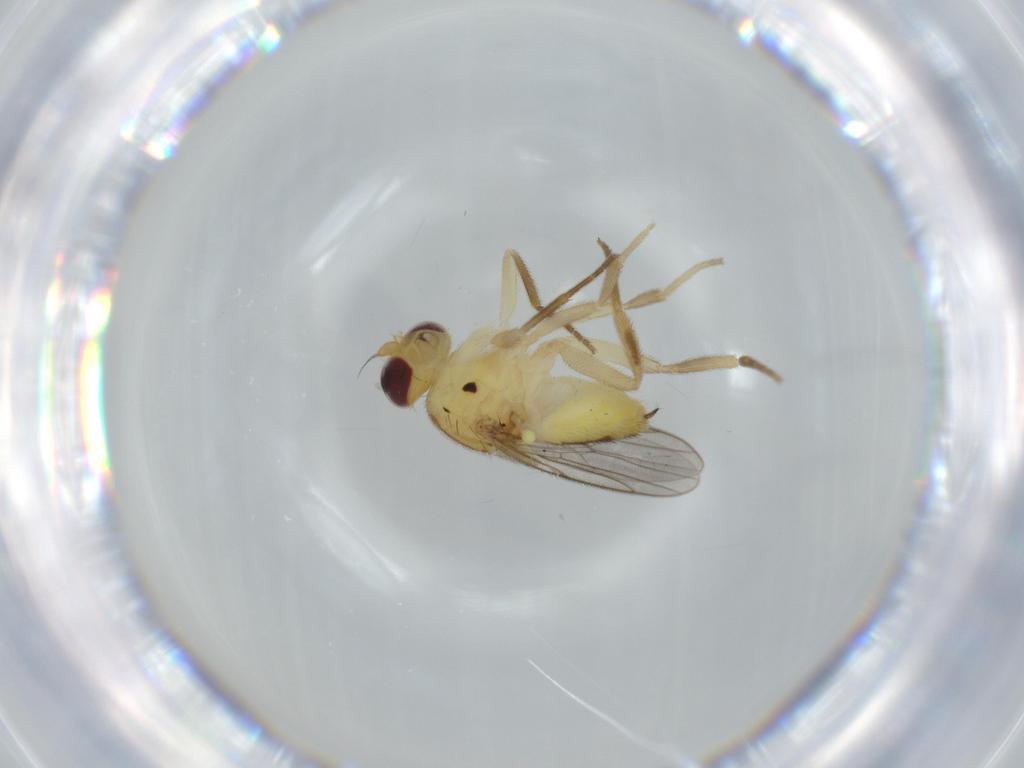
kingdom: Animalia
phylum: Arthropoda
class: Insecta
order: Diptera
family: Chloropidae
